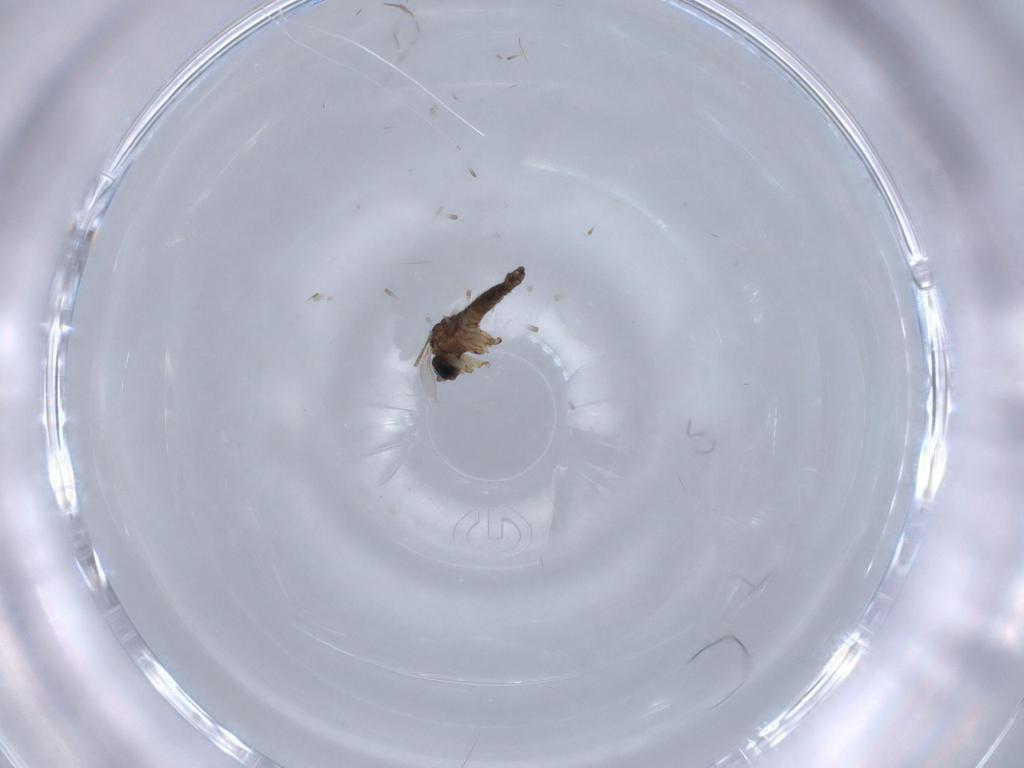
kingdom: Animalia
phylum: Arthropoda
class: Insecta
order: Diptera
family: Sciaridae
